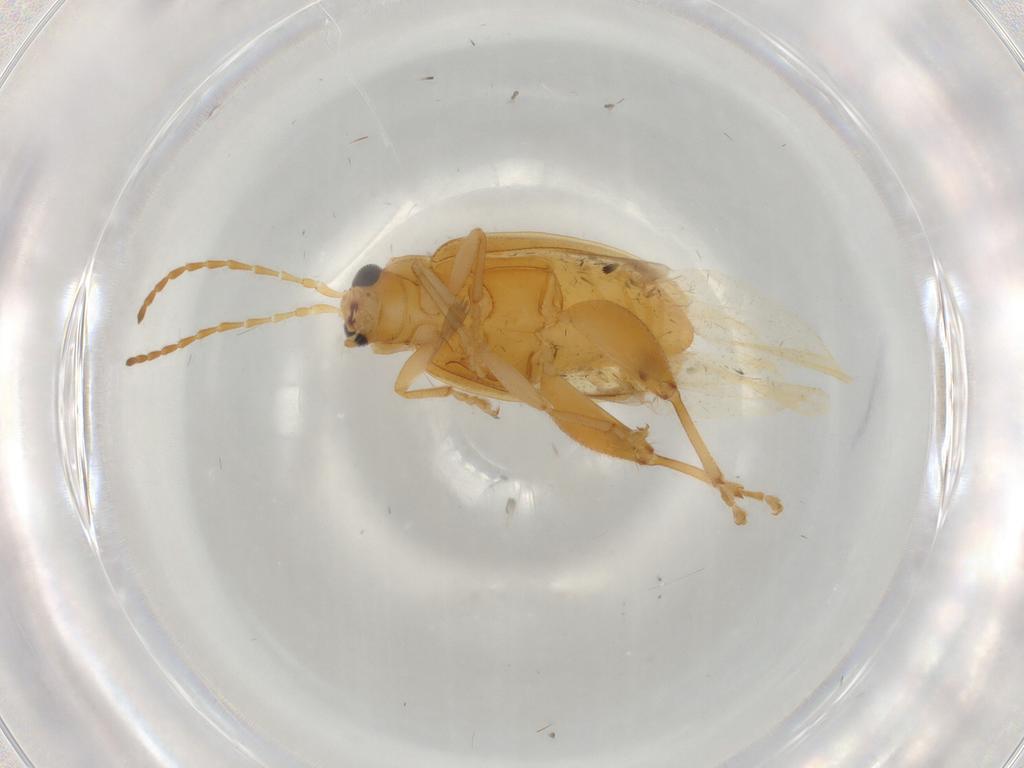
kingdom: Animalia
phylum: Arthropoda
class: Insecta
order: Coleoptera
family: Chrysomelidae
